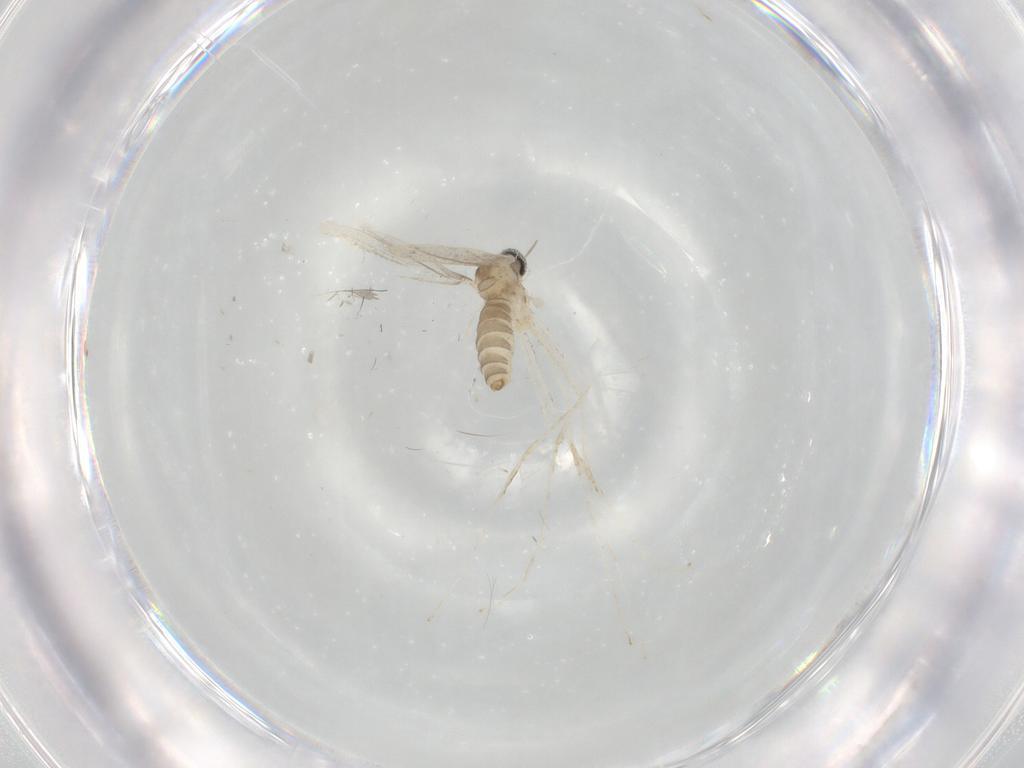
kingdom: Animalia
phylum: Arthropoda
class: Insecta
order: Diptera
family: Cecidomyiidae
